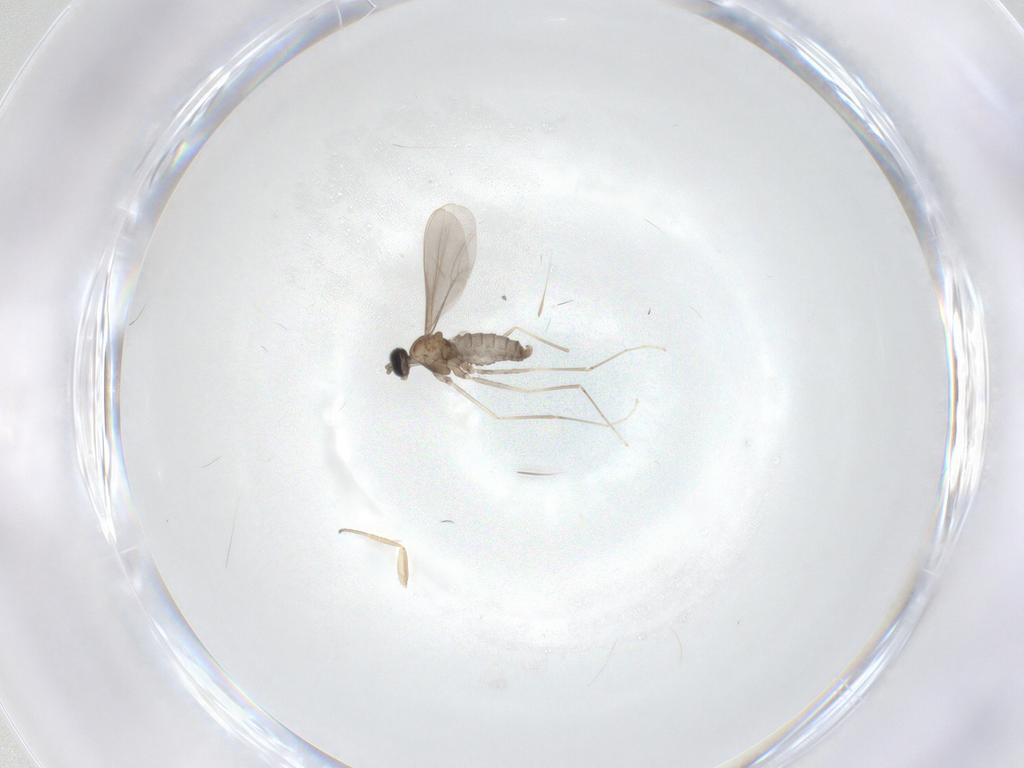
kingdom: Animalia
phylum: Arthropoda
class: Insecta
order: Diptera
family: Cecidomyiidae
